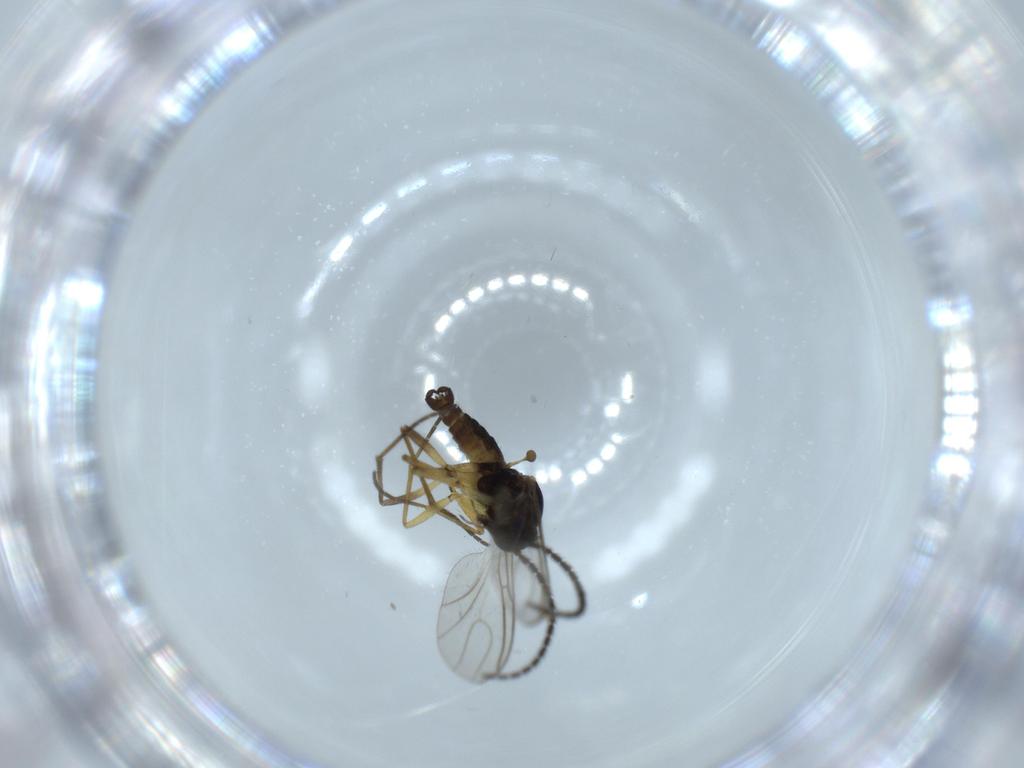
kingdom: Animalia
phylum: Arthropoda
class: Insecta
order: Diptera
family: Sciaridae
